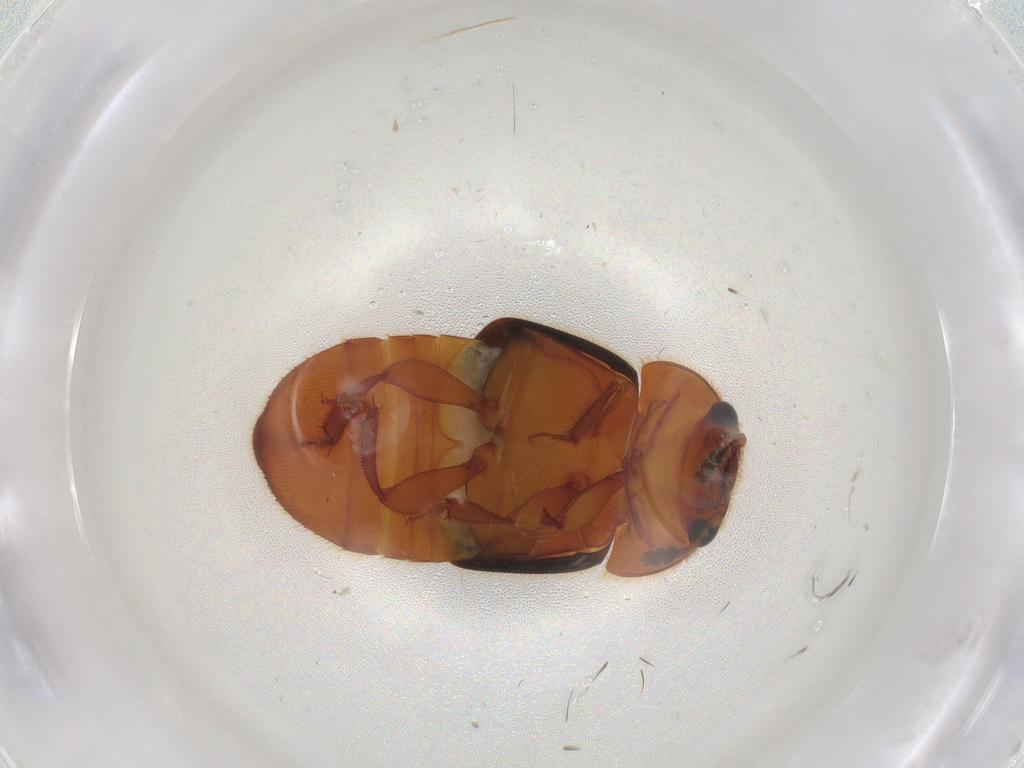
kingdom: Animalia
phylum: Arthropoda
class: Insecta
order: Coleoptera
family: Nitidulidae
